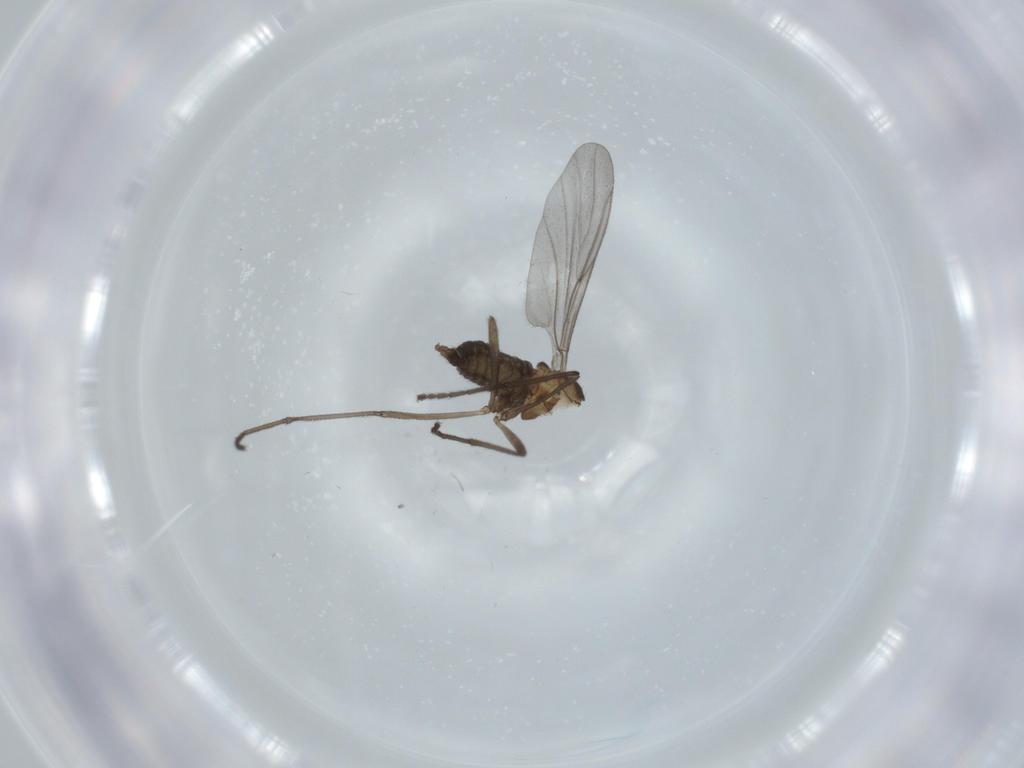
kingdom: Animalia
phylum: Arthropoda
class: Insecta
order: Diptera
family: Cecidomyiidae
